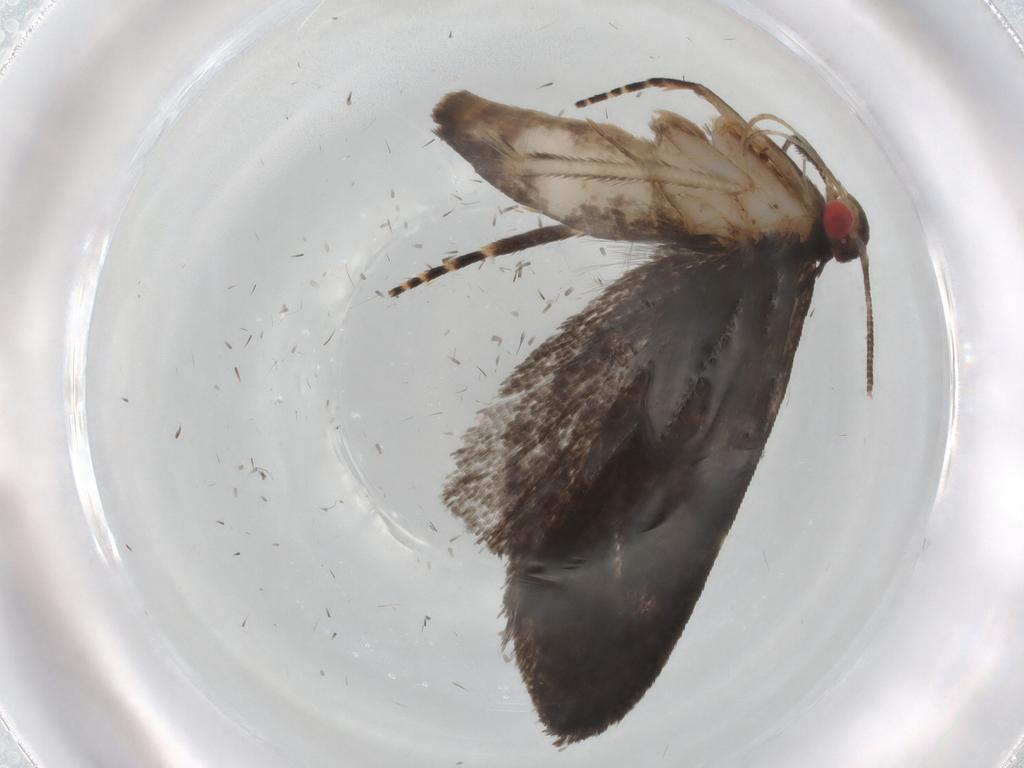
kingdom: Animalia
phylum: Arthropoda
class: Insecta
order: Lepidoptera
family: Gelechiidae
